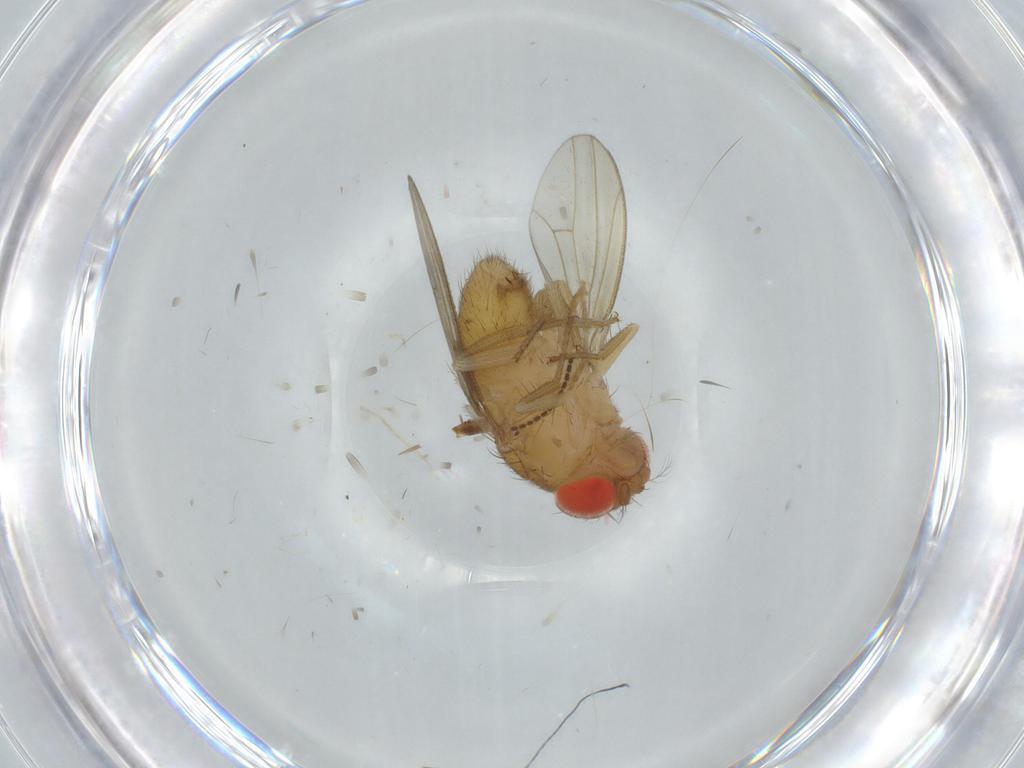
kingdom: Animalia
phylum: Arthropoda
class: Insecta
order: Diptera
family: Drosophilidae
